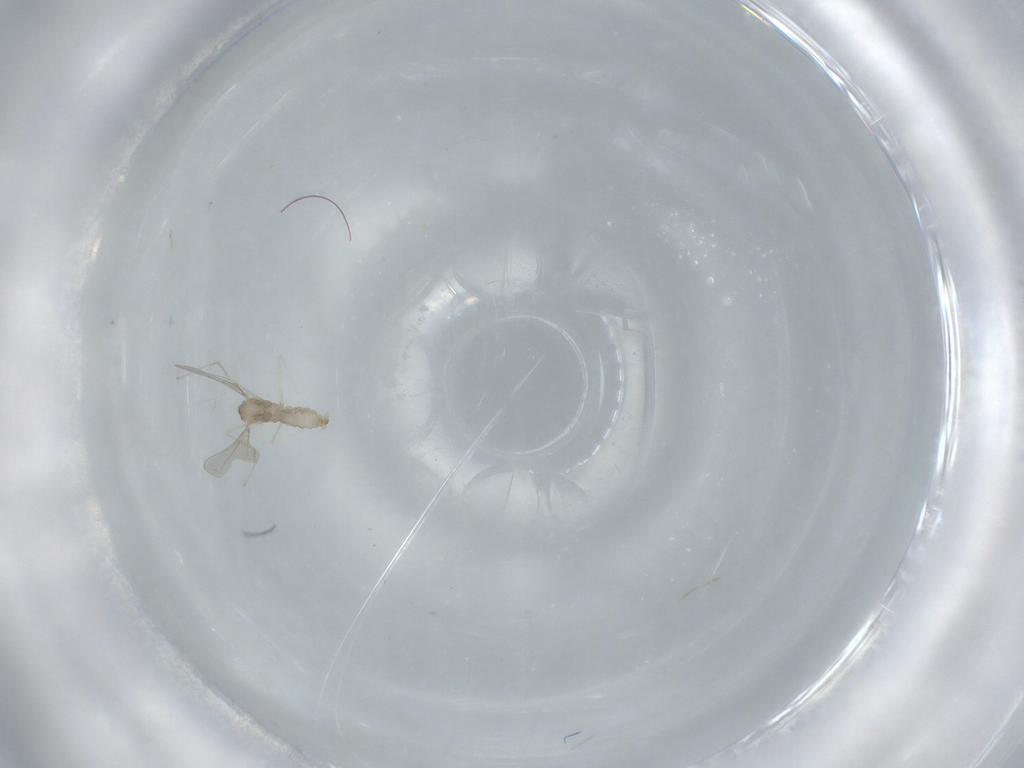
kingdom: Animalia
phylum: Arthropoda
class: Insecta
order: Diptera
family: Cecidomyiidae
